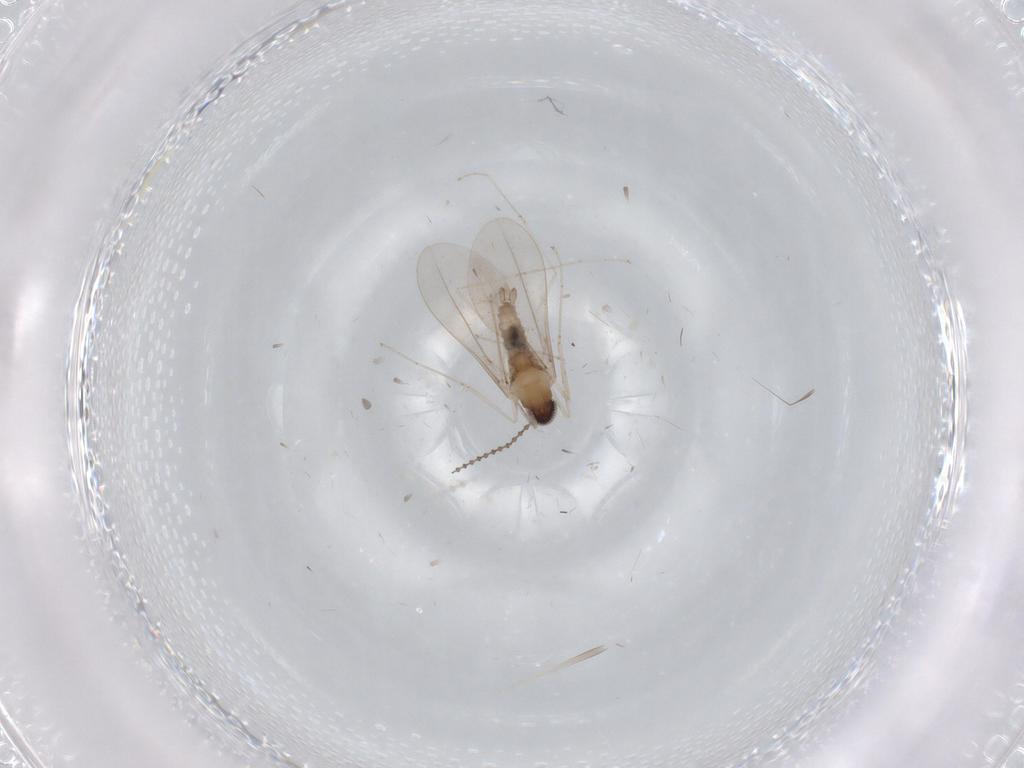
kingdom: Animalia
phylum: Arthropoda
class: Insecta
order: Diptera
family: Cecidomyiidae
